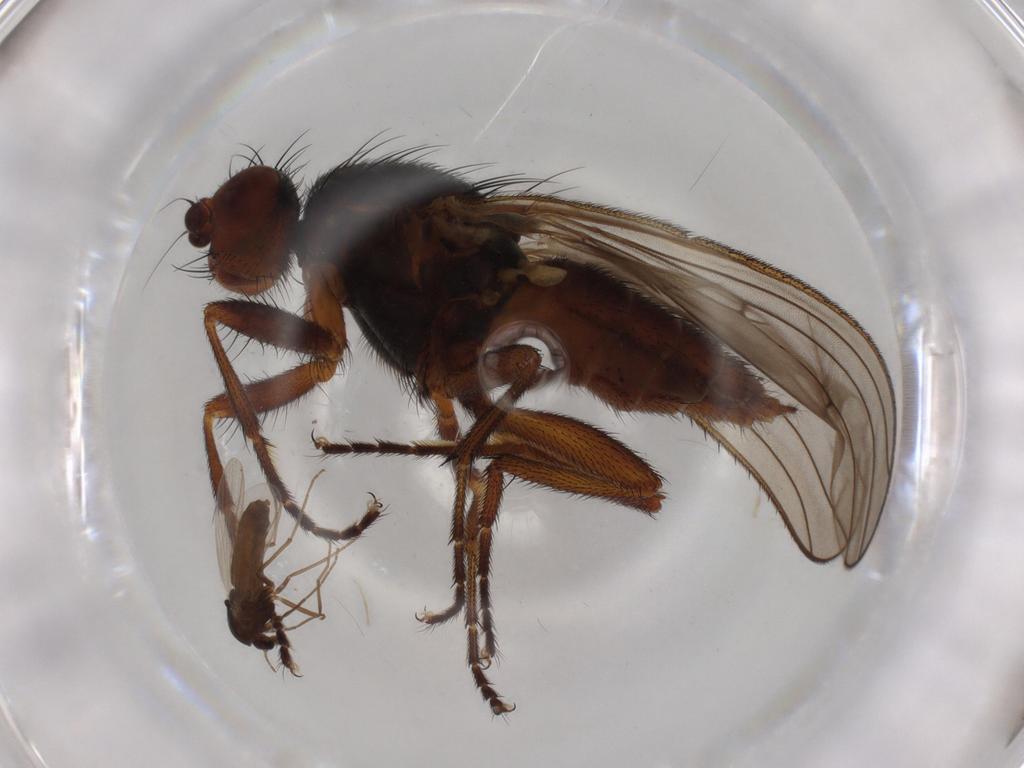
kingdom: Animalia
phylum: Arthropoda
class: Insecta
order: Diptera
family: Heleomyzidae
